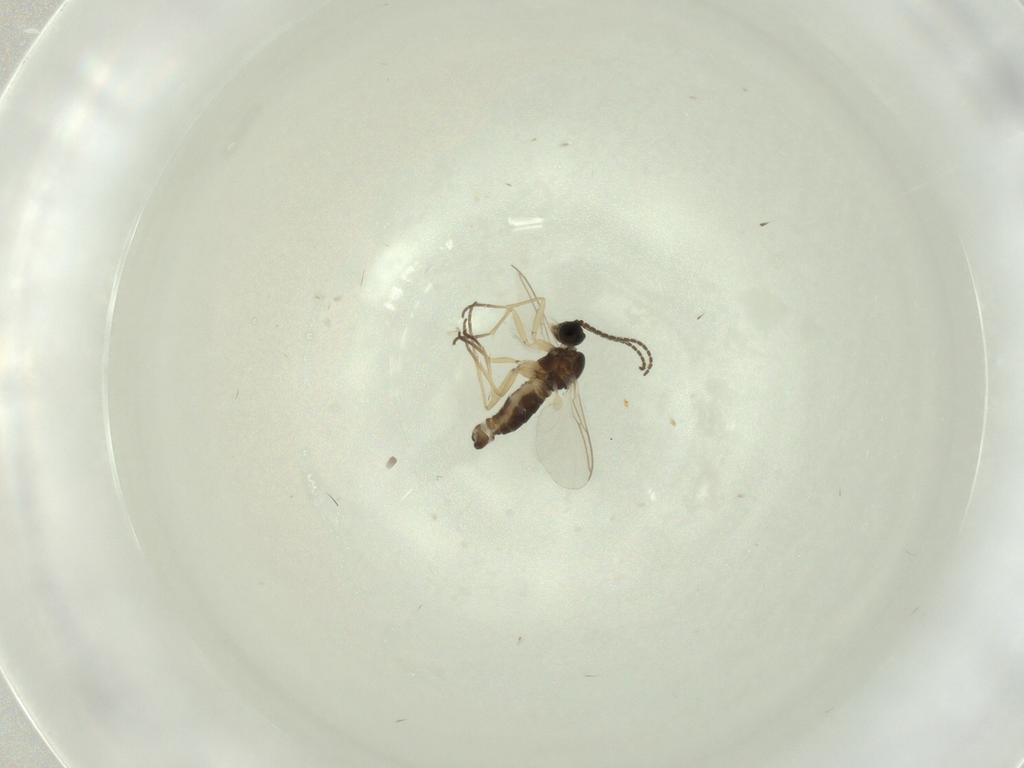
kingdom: Animalia
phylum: Arthropoda
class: Insecta
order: Diptera
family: Sciaridae
